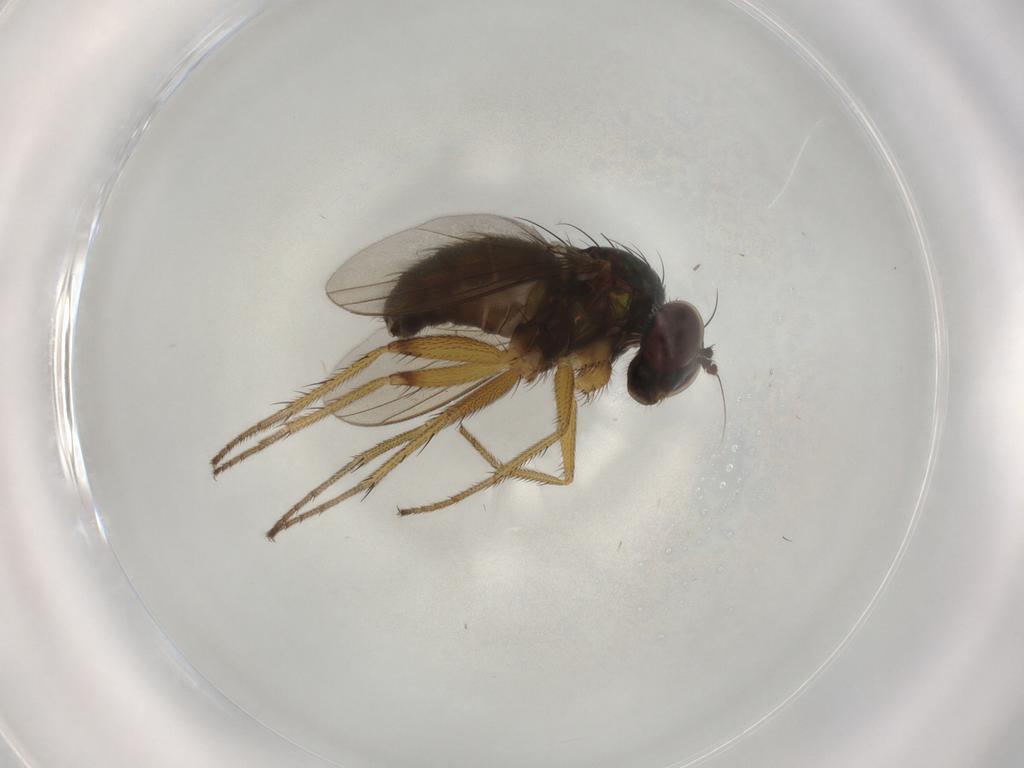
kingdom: Animalia
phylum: Arthropoda
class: Insecta
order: Diptera
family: Dolichopodidae
